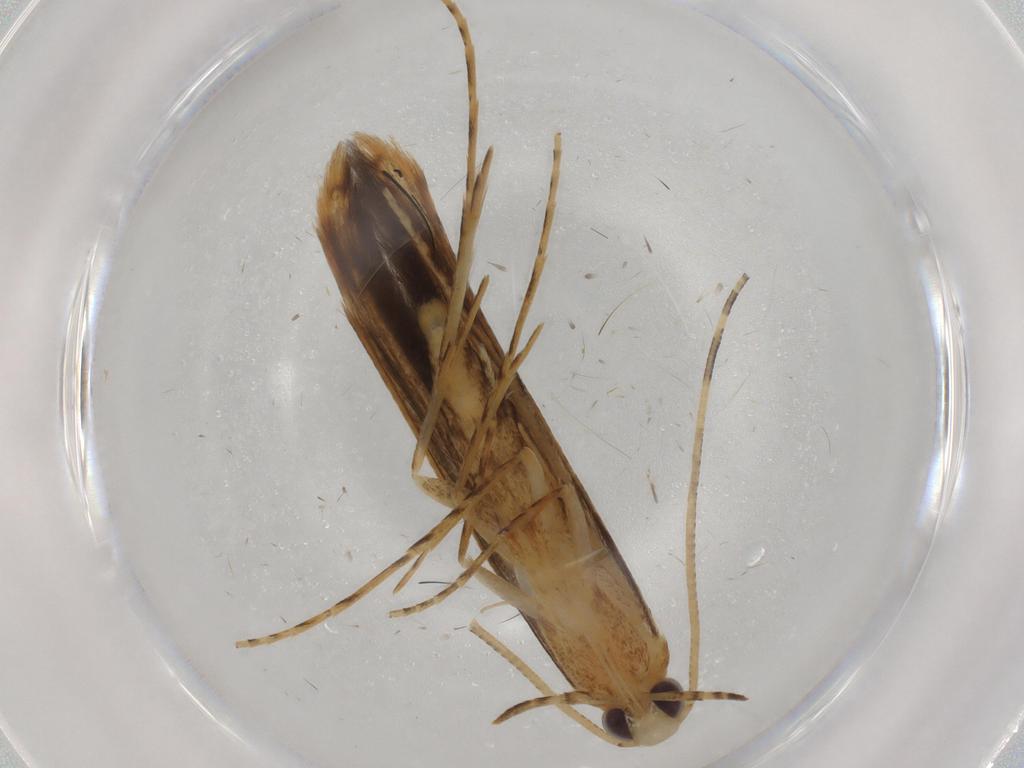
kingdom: Animalia
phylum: Arthropoda
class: Insecta
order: Lepidoptera
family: Batrachedridae
